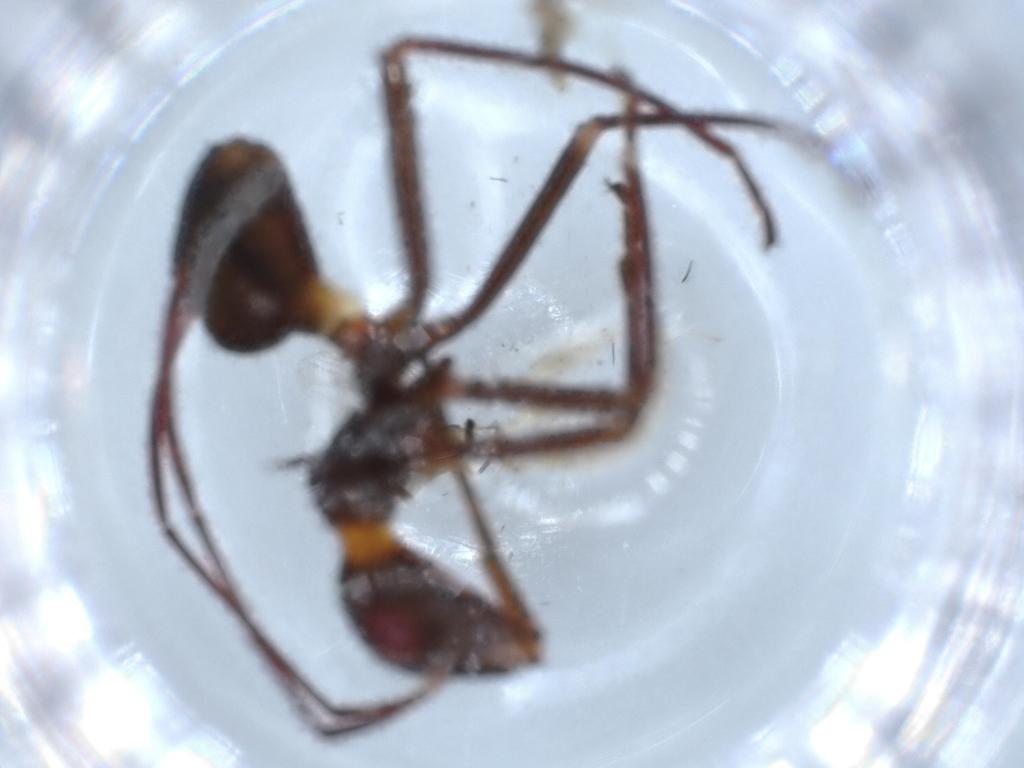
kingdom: Animalia
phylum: Arthropoda
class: Insecta
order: Hemiptera
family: Alydidae
